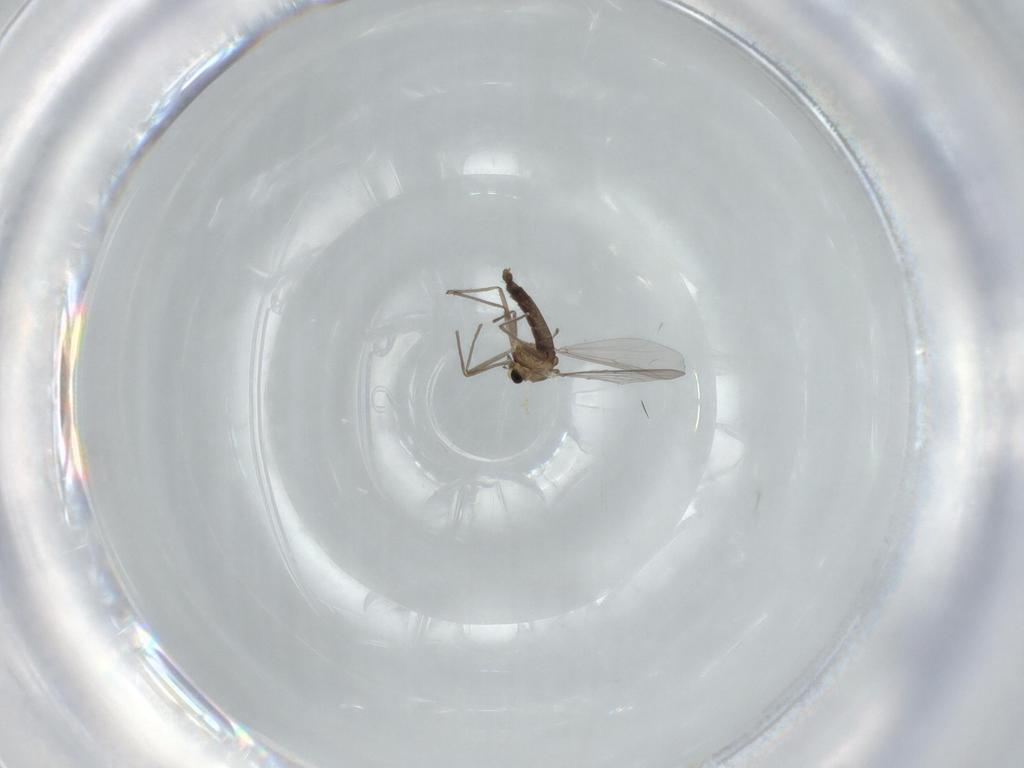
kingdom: Animalia
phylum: Arthropoda
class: Insecta
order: Diptera
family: Chironomidae
